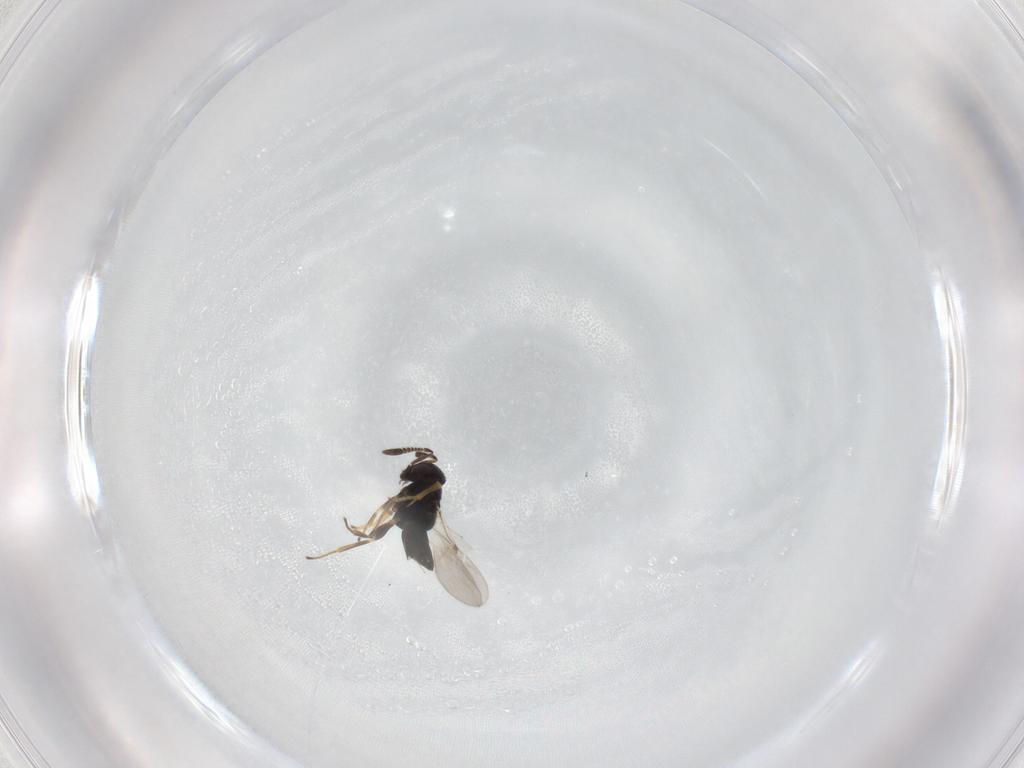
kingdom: Animalia
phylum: Arthropoda
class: Insecta
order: Hymenoptera
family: Encyrtidae
